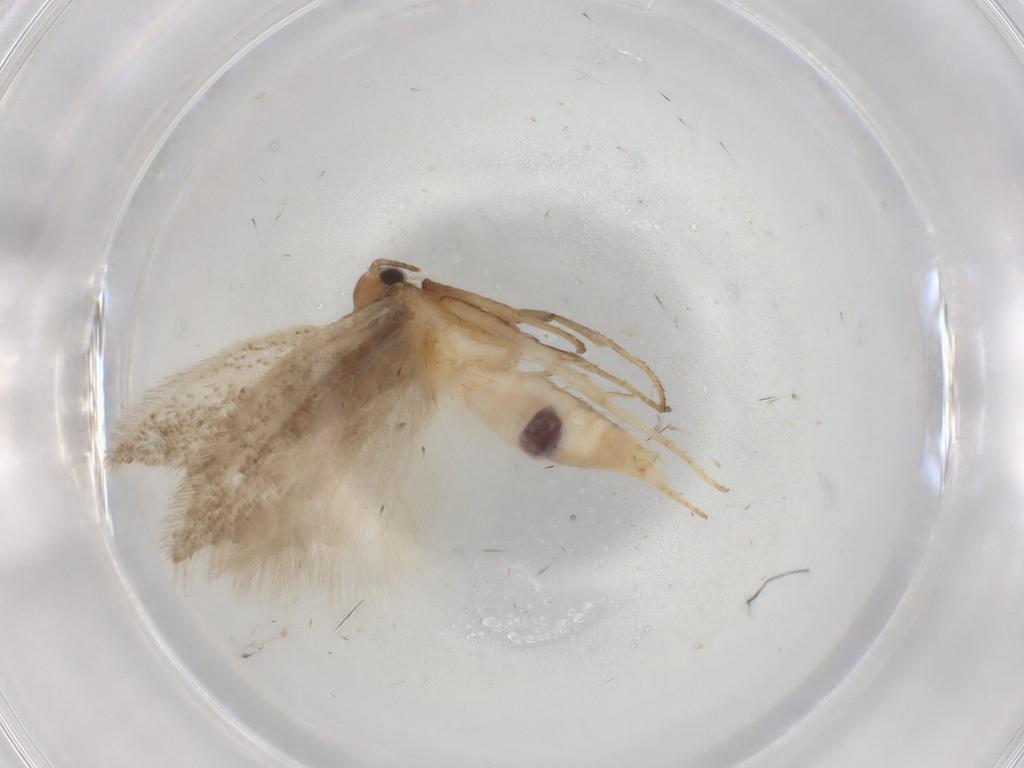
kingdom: Animalia
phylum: Arthropoda
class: Insecta
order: Lepidoptera
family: Gelechiidae
